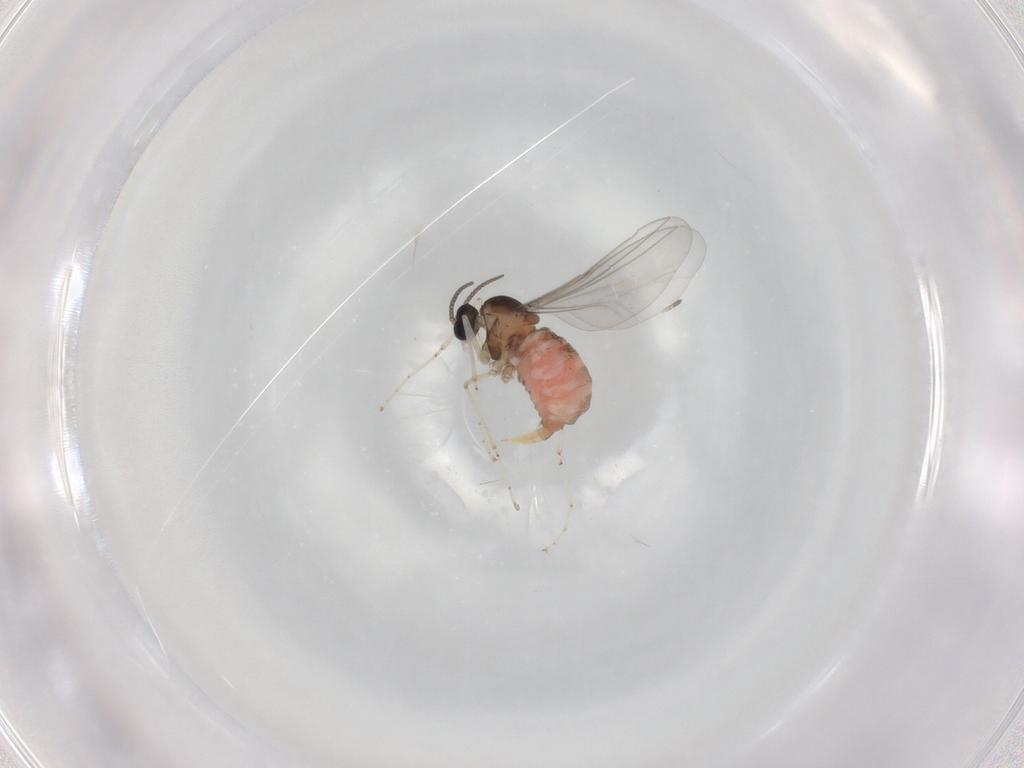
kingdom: Animalia
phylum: Arthropoda
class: Insecta
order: Diptera
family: Cecidomyiidae
